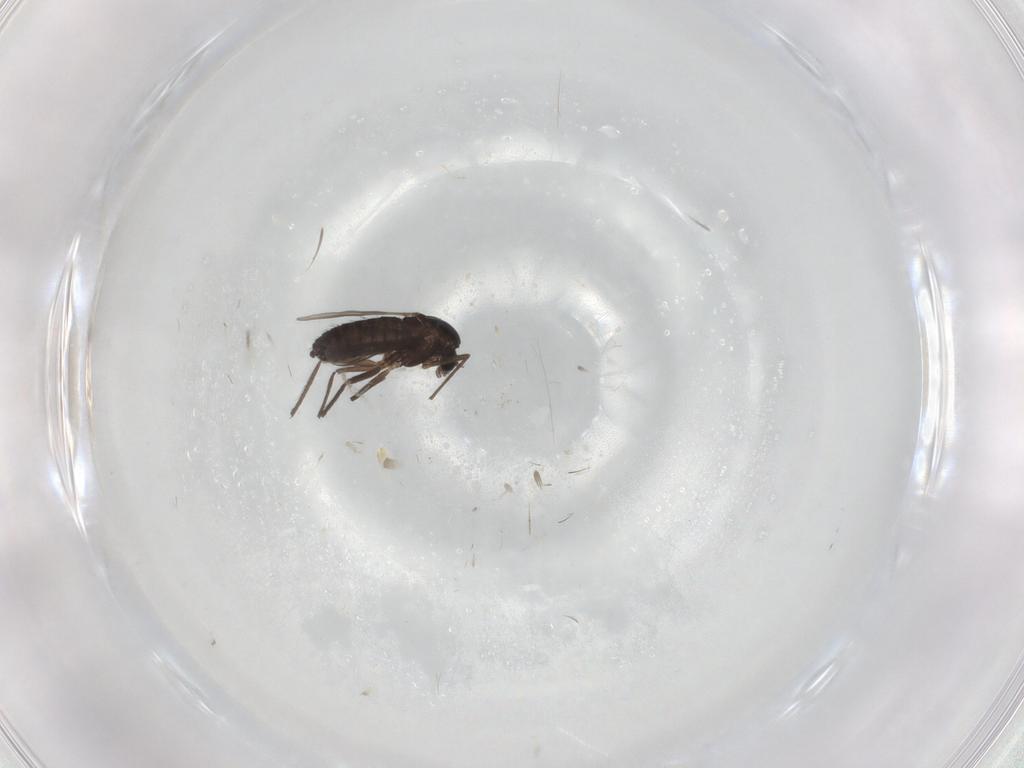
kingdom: Animalia
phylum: Arthropoda
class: Insecta
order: Diptera
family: Chironomidae
